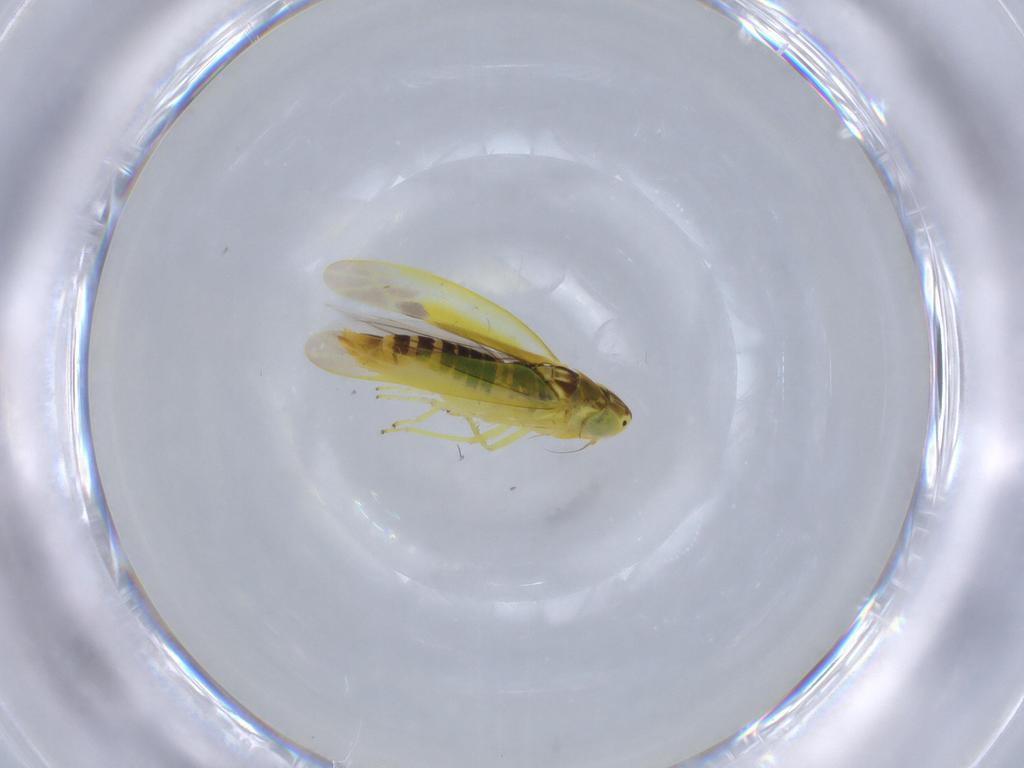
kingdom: Animalia
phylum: Arthropoda
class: Insecta
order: Hemiptera
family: Cicadellidae
